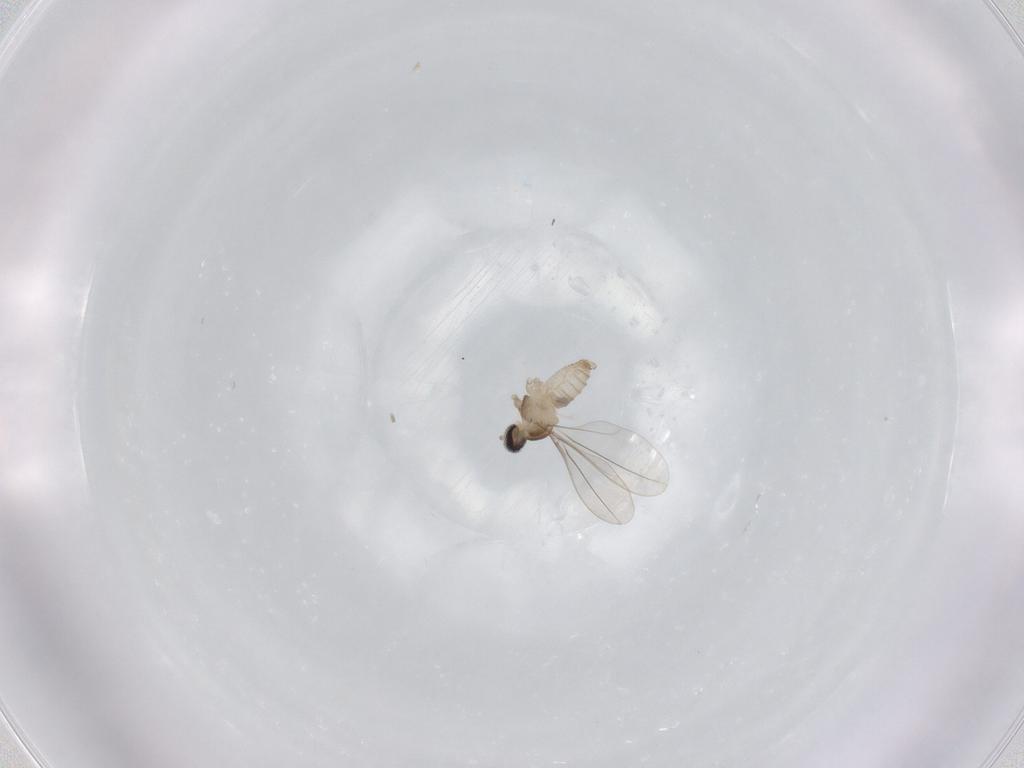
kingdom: Animalia
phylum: Arthropoda
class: Insecta
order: Diptera
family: Cecidomyiidae
